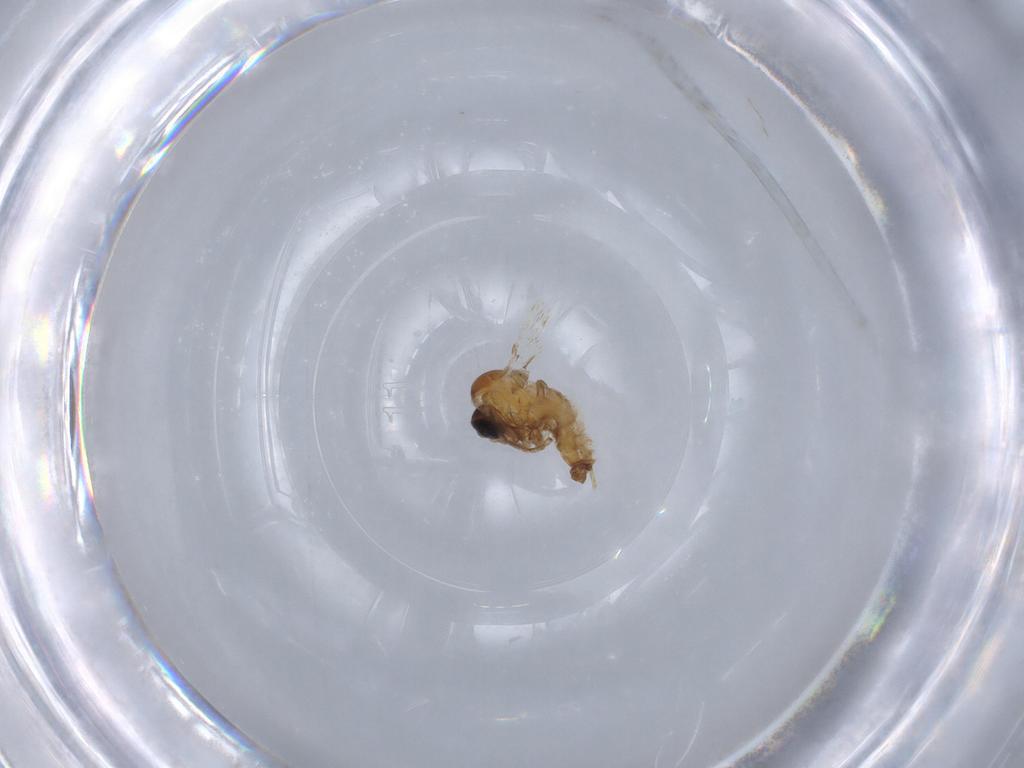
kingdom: Animalia
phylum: Arthropoda
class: Insecta
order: Diptera
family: Psychodidae
